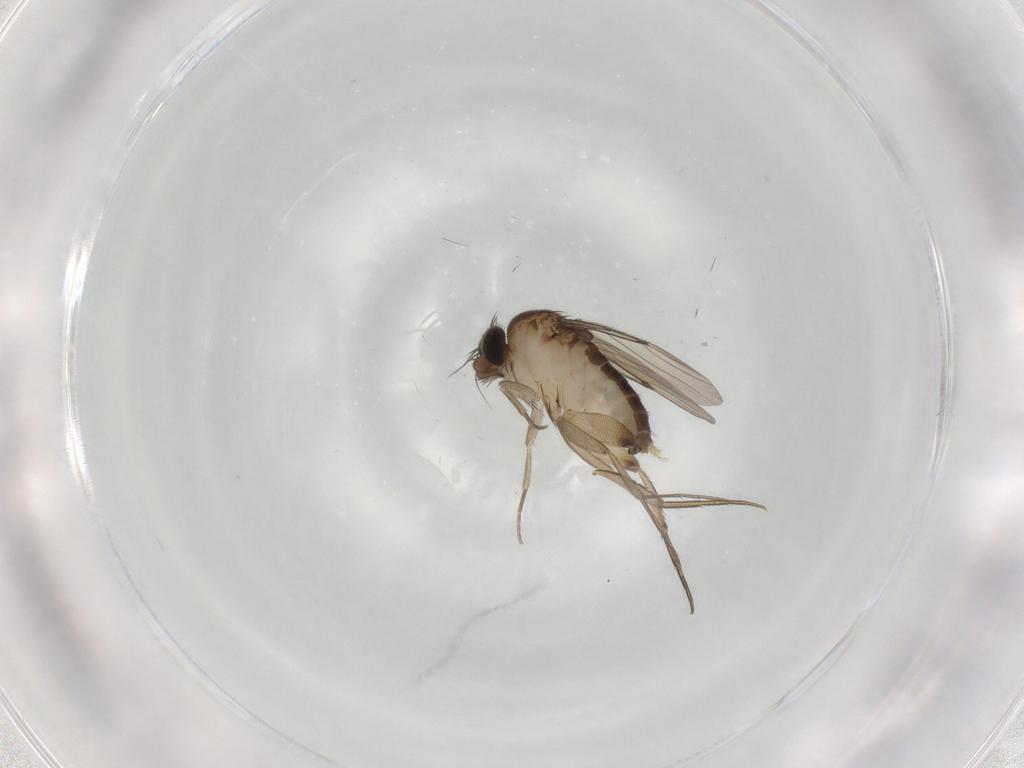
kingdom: Animalia
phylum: Arthropoda
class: Insecta
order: Diptera
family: Phoridae
